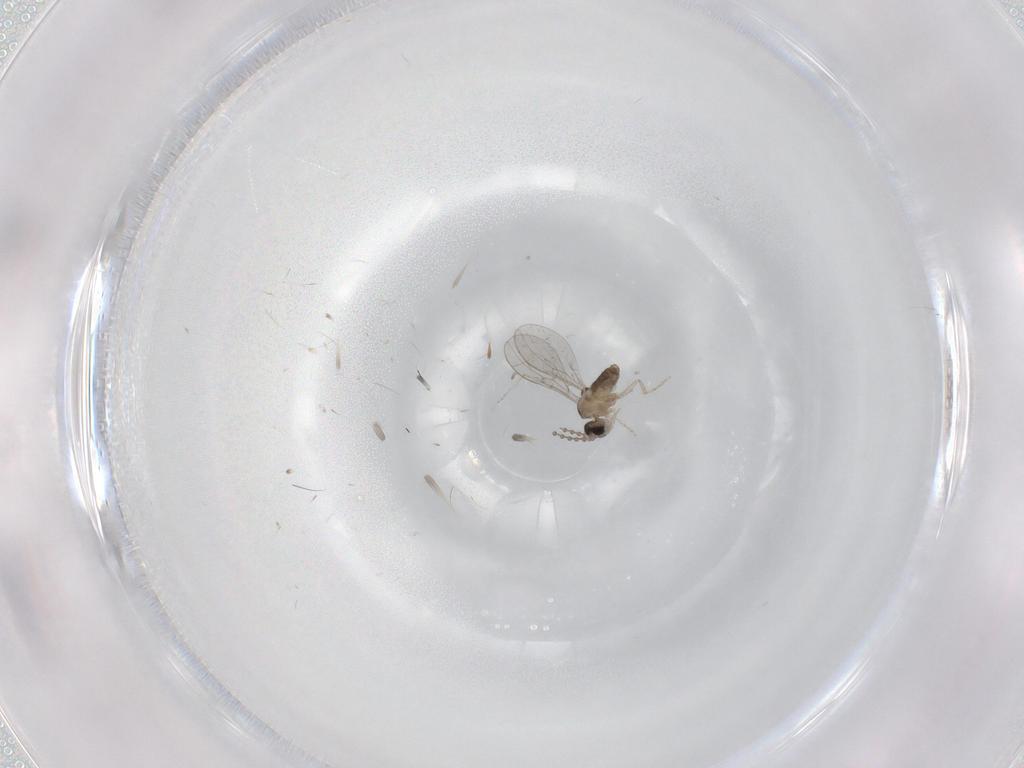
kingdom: Animalia
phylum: Arthropoda
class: Insecta
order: Diptera
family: Cecidomyiidae
